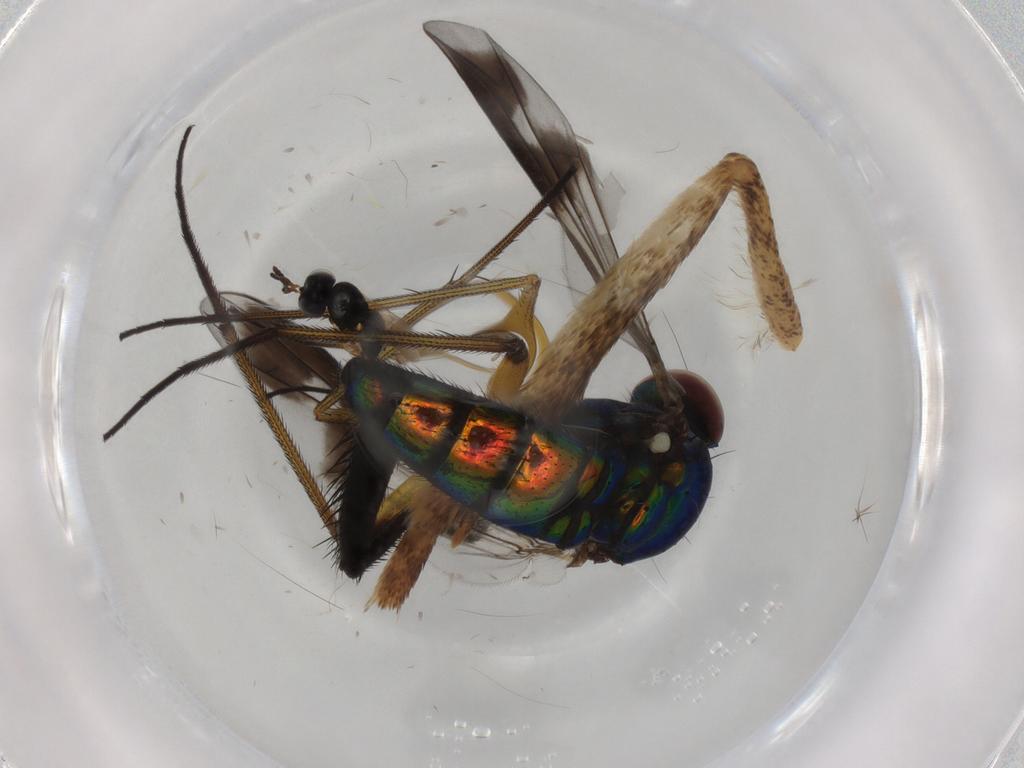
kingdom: Animalia
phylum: Arthropoda
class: Insecta
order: Diptera
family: Dolichopodidae
